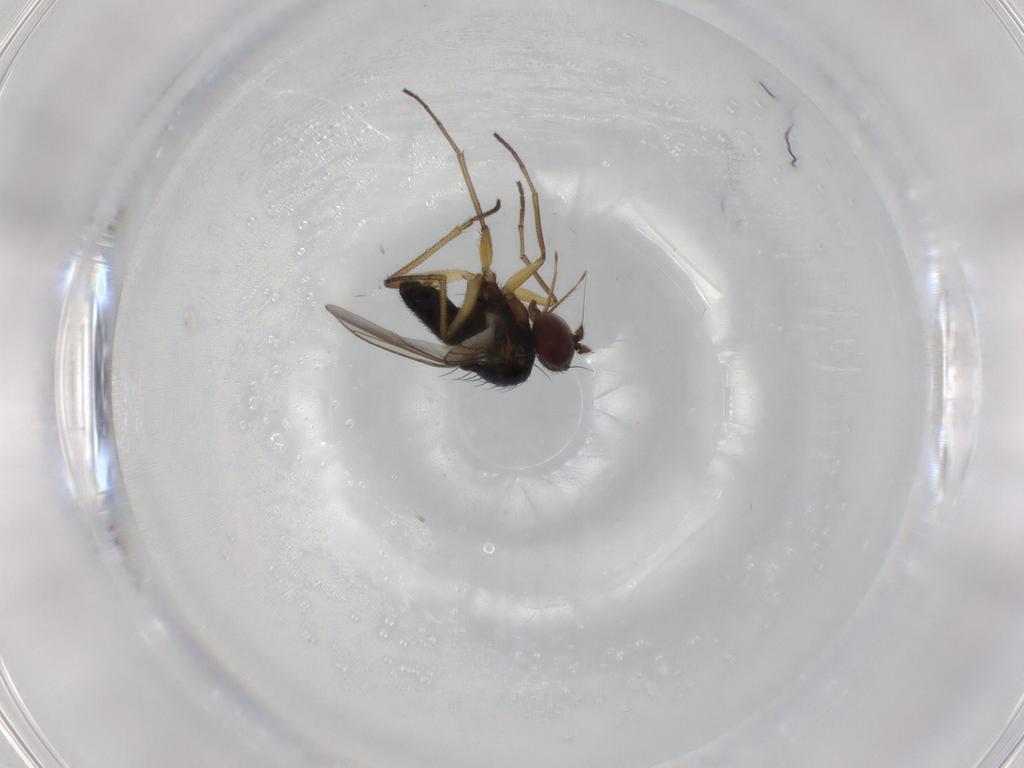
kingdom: Animalia
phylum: Arthropoda
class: Insecta
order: Diptera
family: Dolichopodidae
